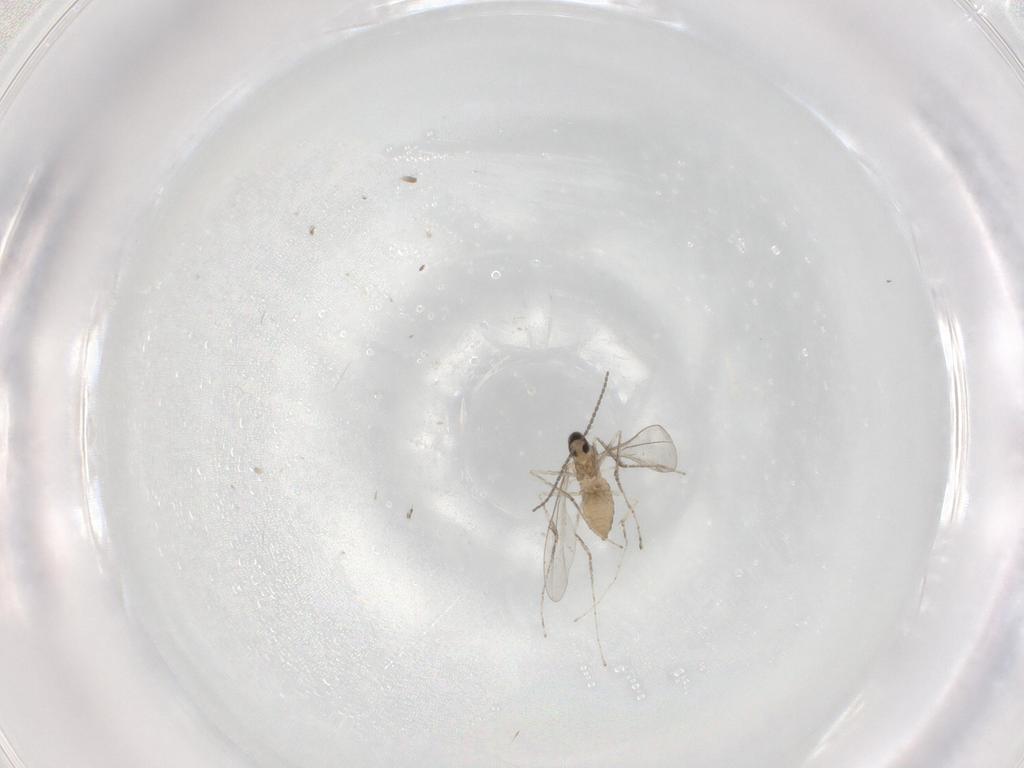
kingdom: Animalia
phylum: Arthropoda
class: Insecta
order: Diptera
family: Cecidomyiidae
